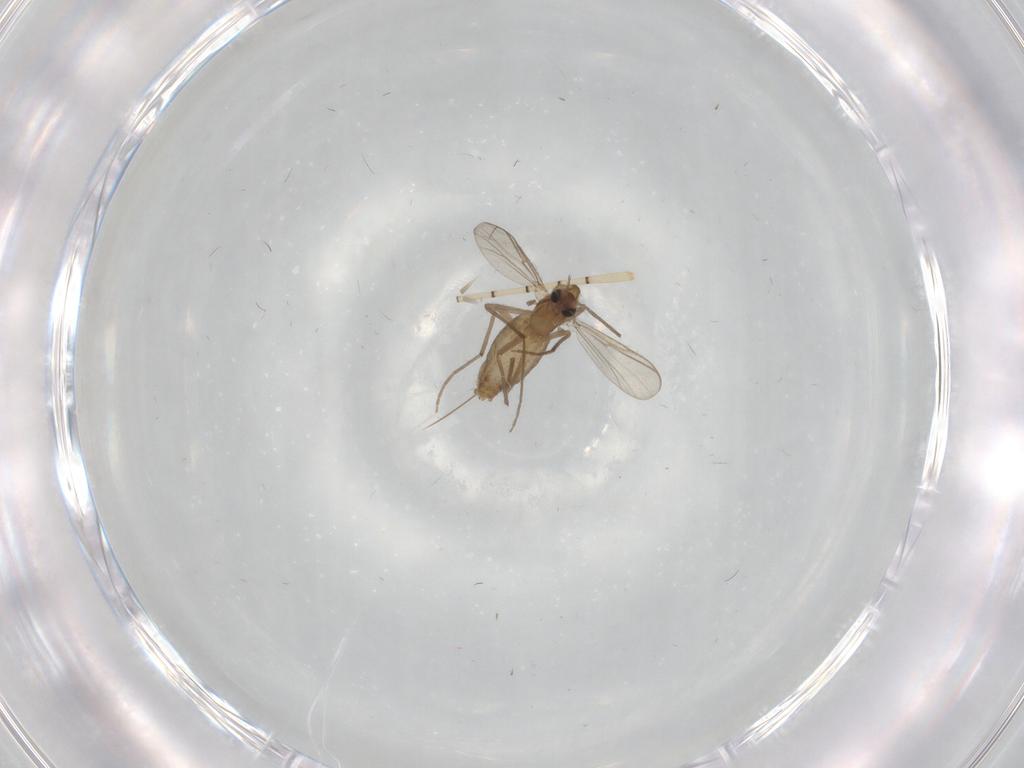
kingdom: Animalia
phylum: Arthropoda
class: Insecta
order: Diptera
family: Chironomidae
